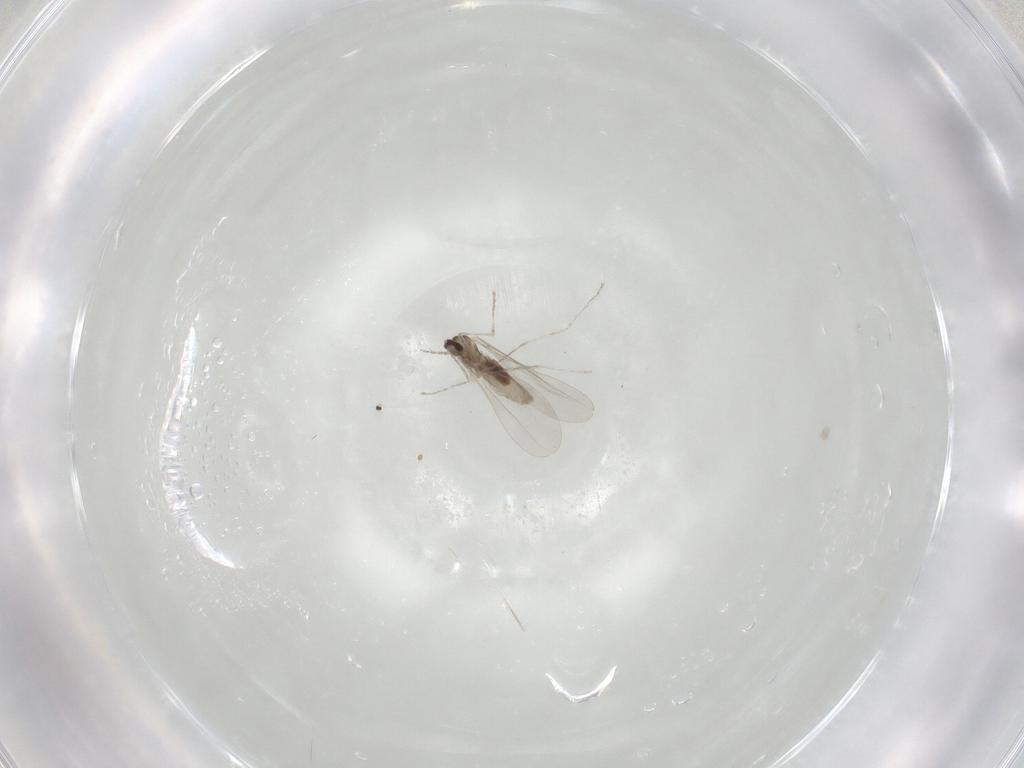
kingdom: Animalia
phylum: Arthropoda
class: Insecta
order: Diptera
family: Cecidomyiidae
